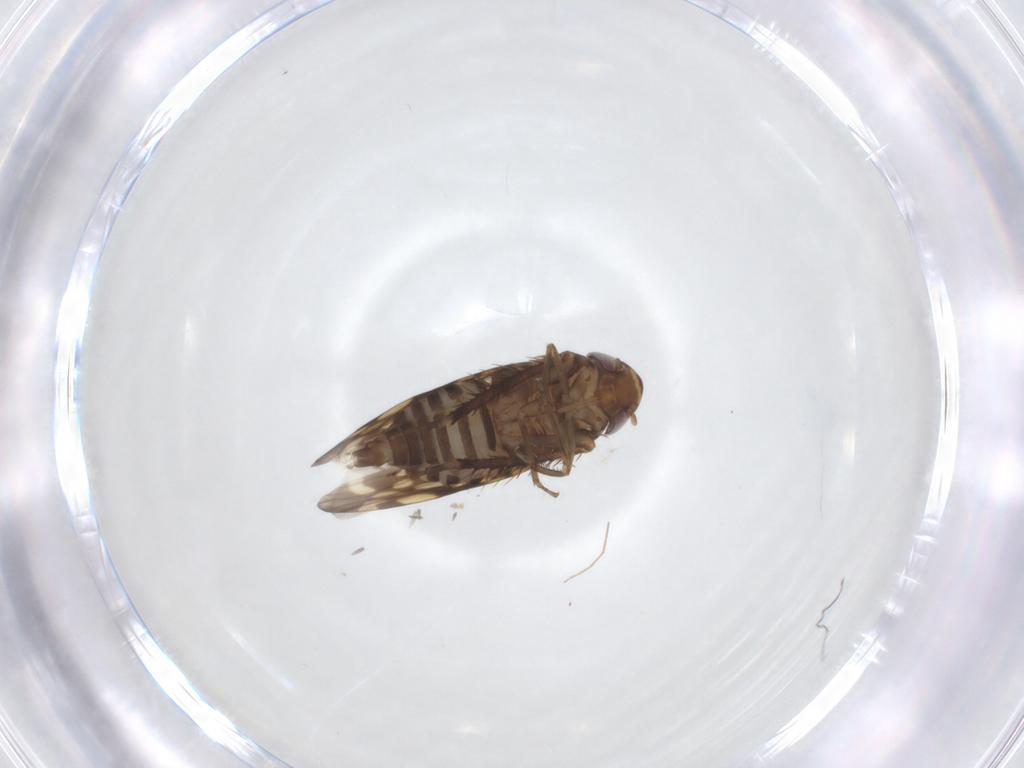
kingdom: Animalia
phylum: Arthropoda
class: Insecta
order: Hemiptera
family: Cicadellidae
